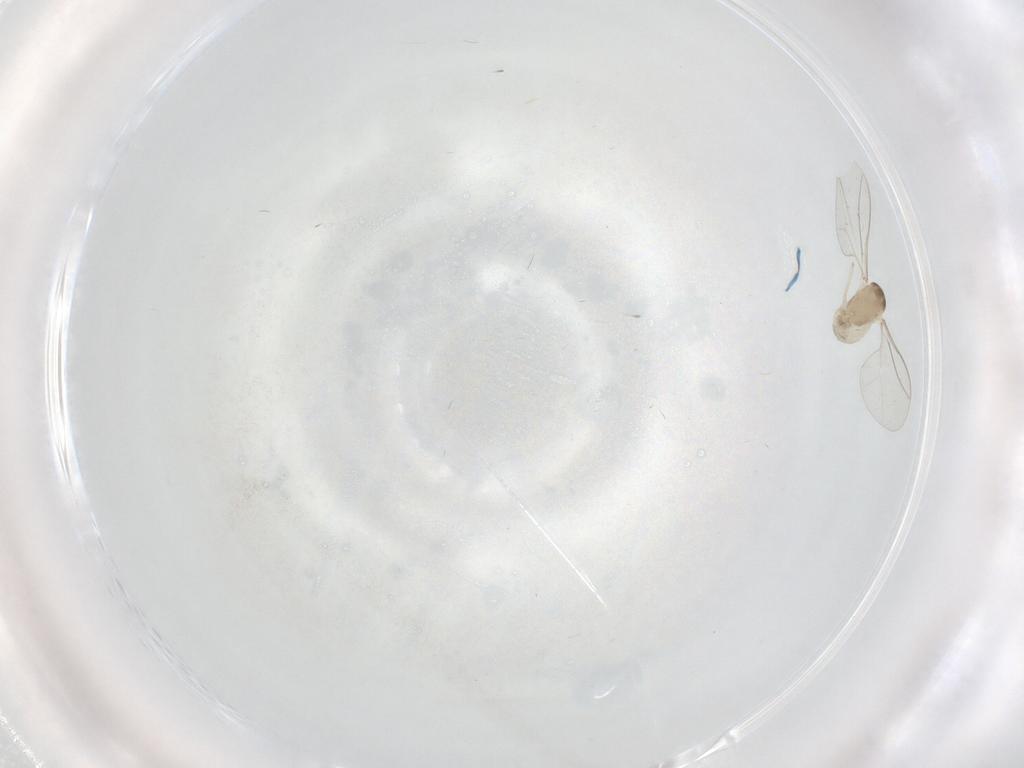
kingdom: Animalia
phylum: Arthropoda
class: Insecta
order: Diptera
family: Cecidomyiidae
